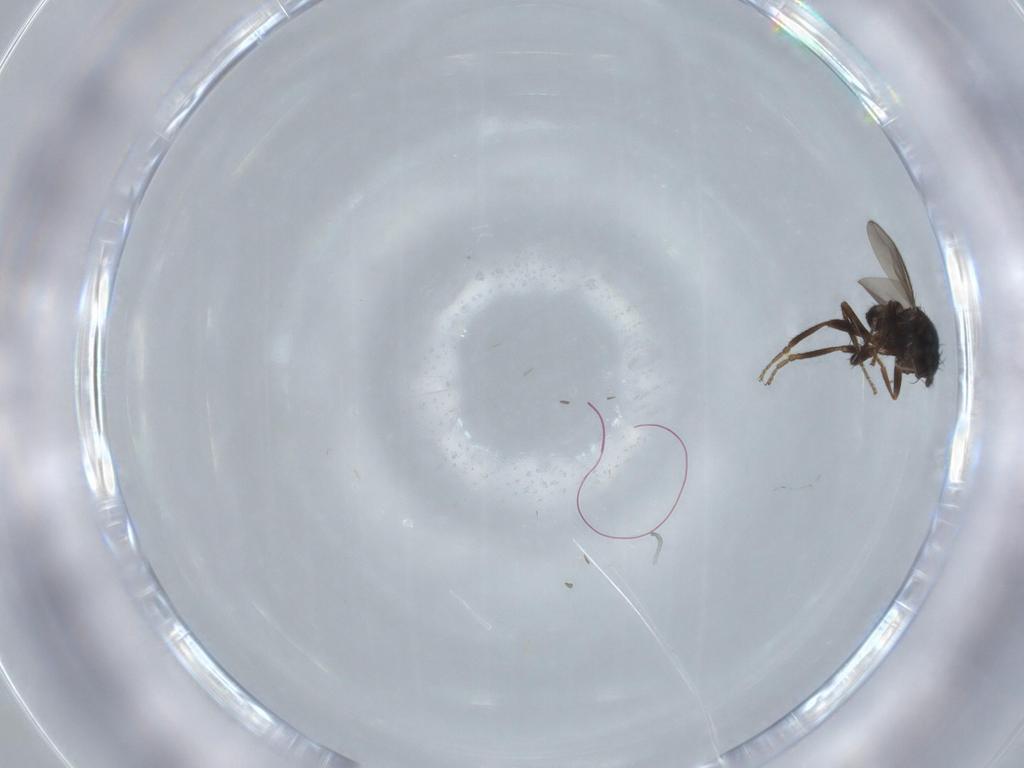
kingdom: Animalia
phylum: Arthropoda
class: Insecta
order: Diptera
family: Sphaeroceridae
